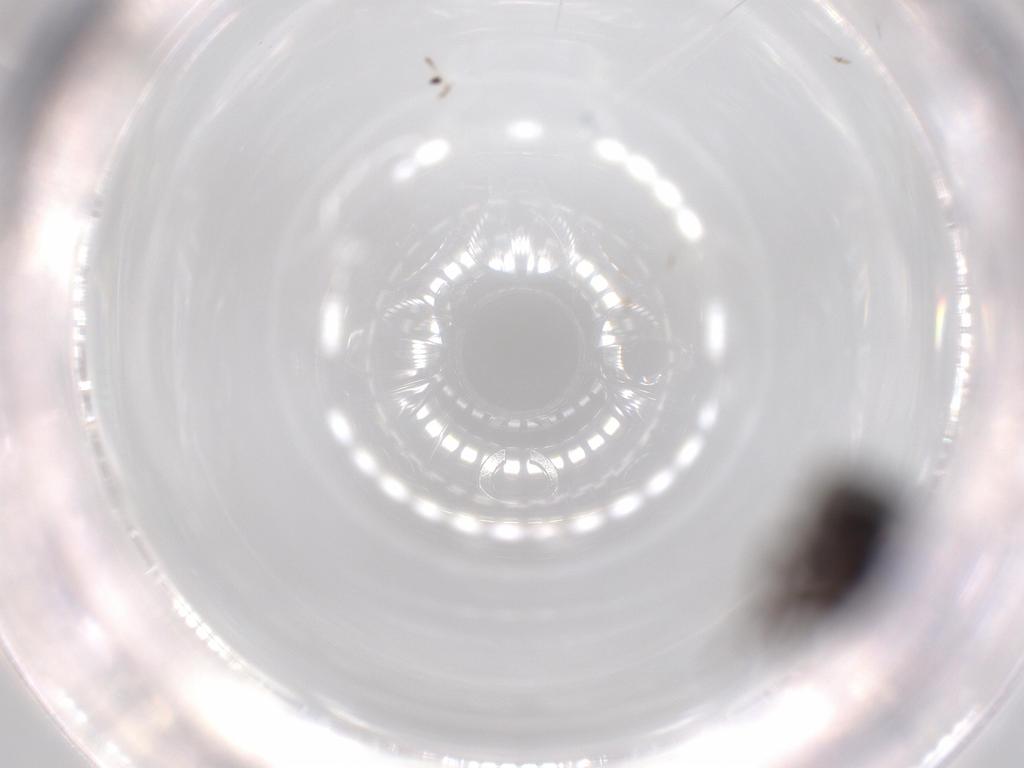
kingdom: Animalia
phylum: Arthropoda
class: Insecta
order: Coleoptera
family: Anthicidae
